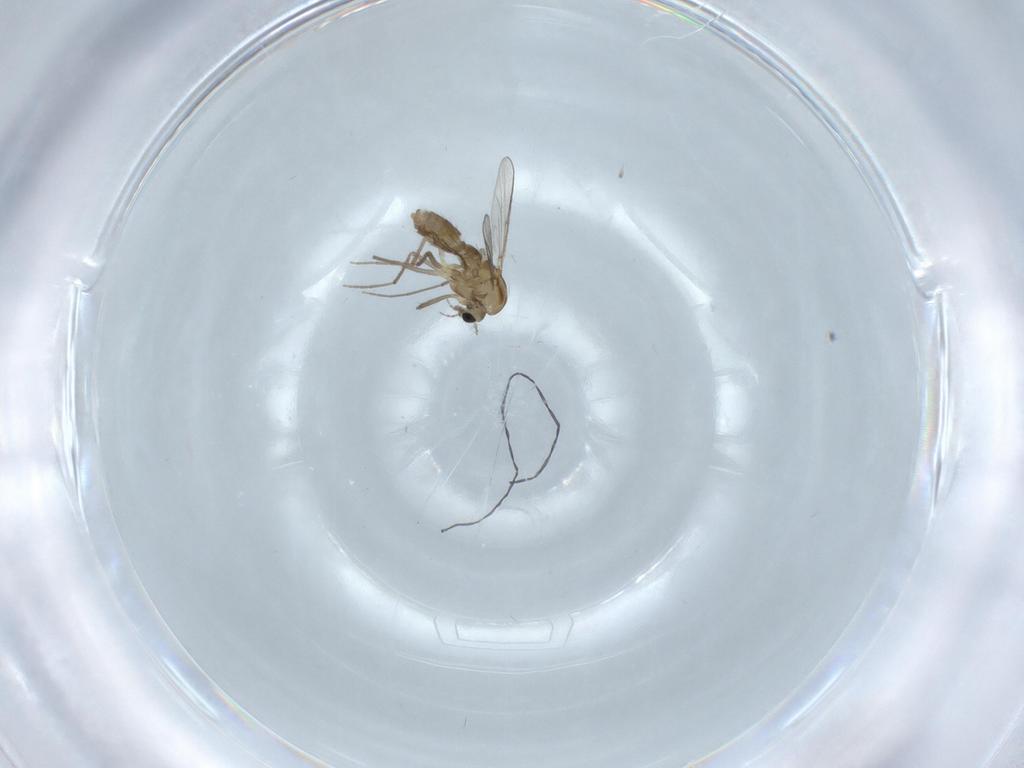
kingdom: Animalia
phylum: Arthropoda
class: Insecta
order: Diptera
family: Chironomidae
